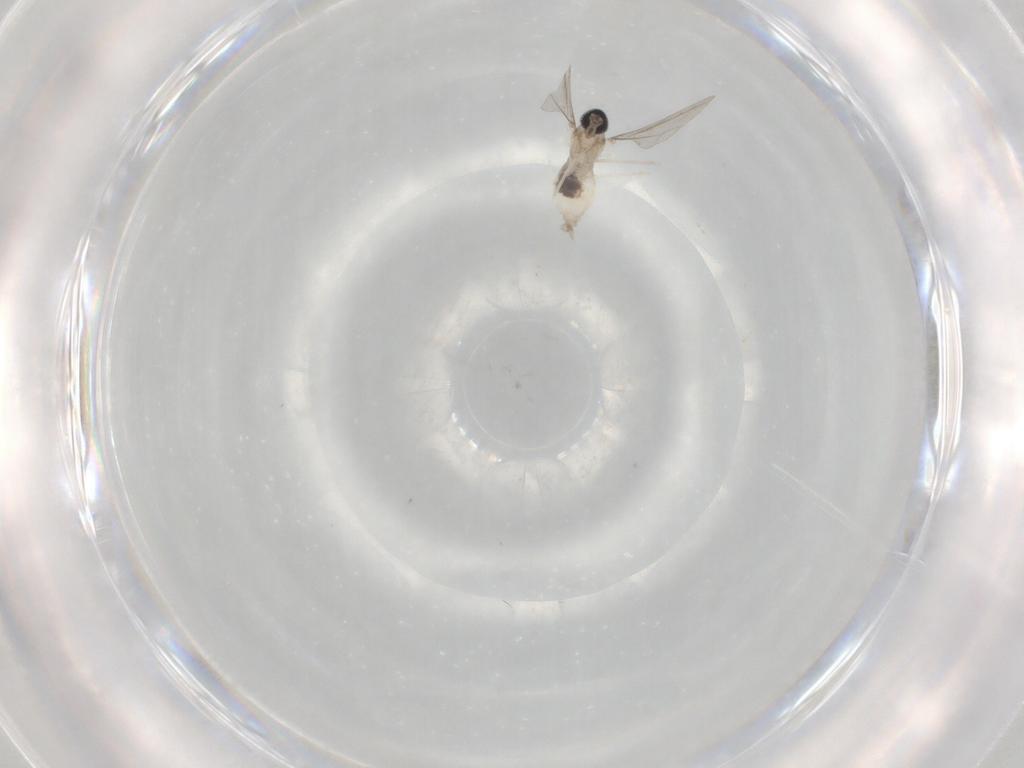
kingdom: Animalia
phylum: Arthropoda
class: Insecta
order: Diptera
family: Cecidomyiidae
